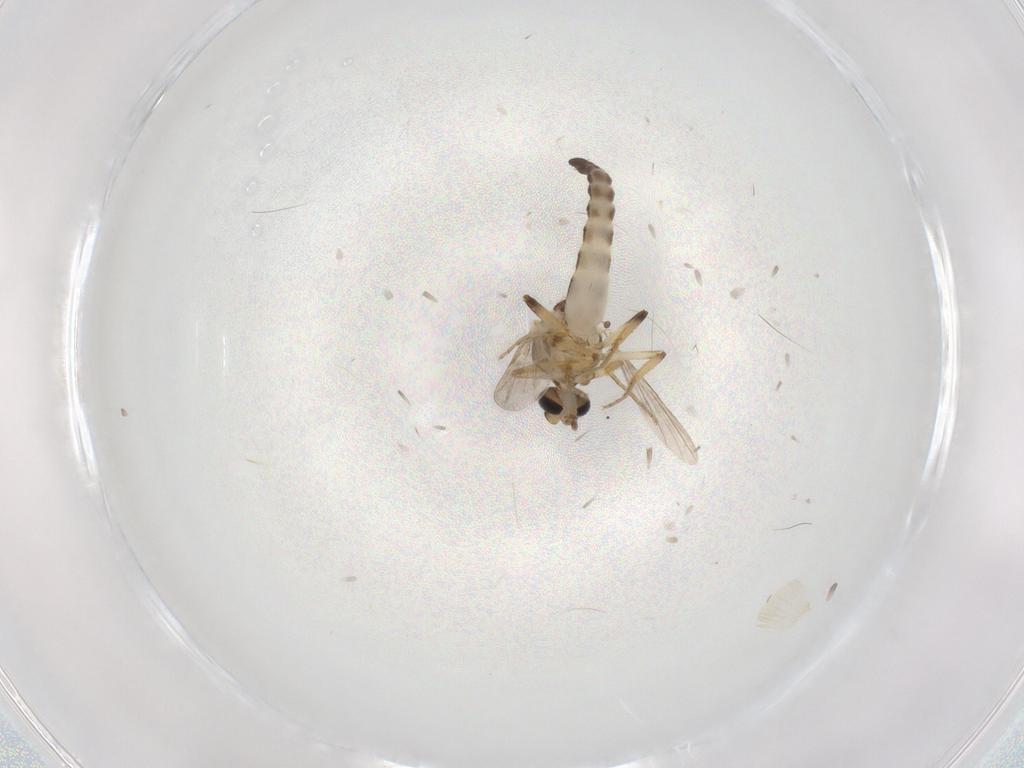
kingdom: Animalia
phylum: Arthropoda
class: Insecta
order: Diptera
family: Ceratopogonidae
